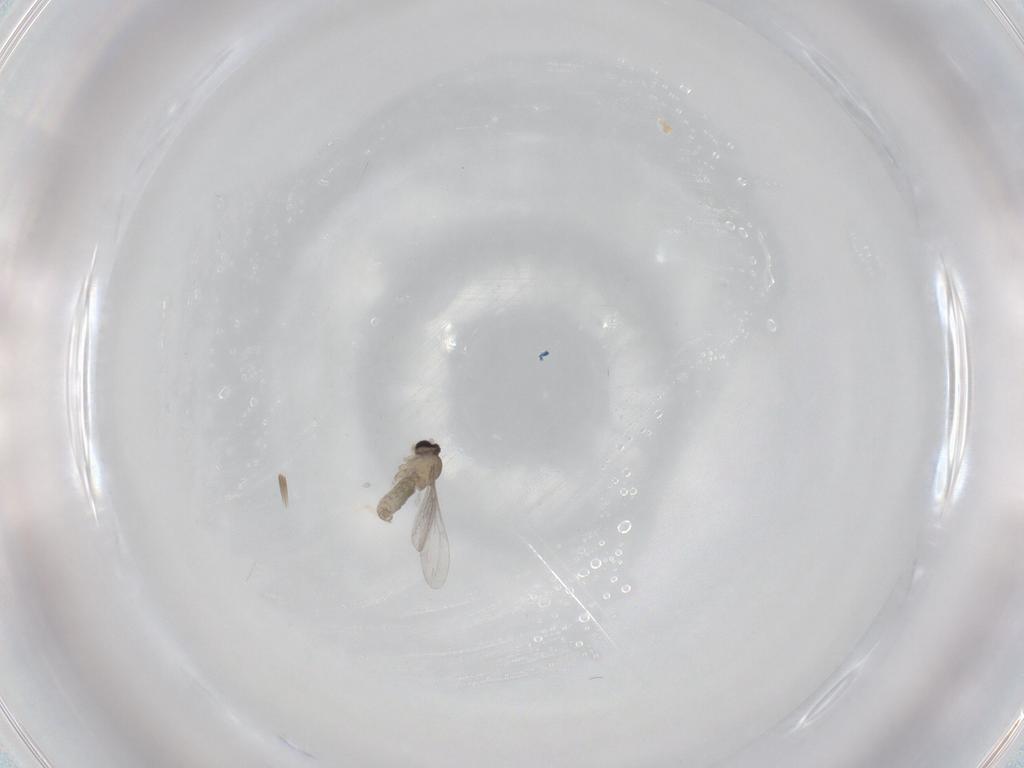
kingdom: Animalia
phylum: Arthropoda
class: Insecta
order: Diptera
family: Cecidomyiidae
